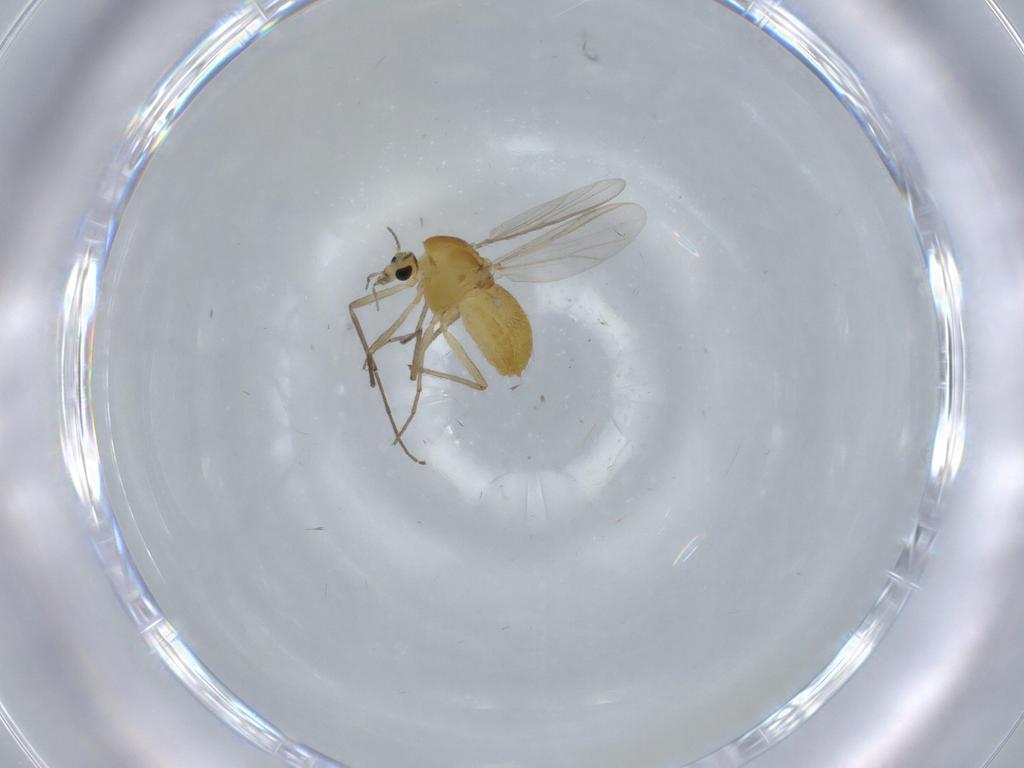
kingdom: Animalia
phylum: Arthropoda
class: Insecta
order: Diptera
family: Chironomidae
